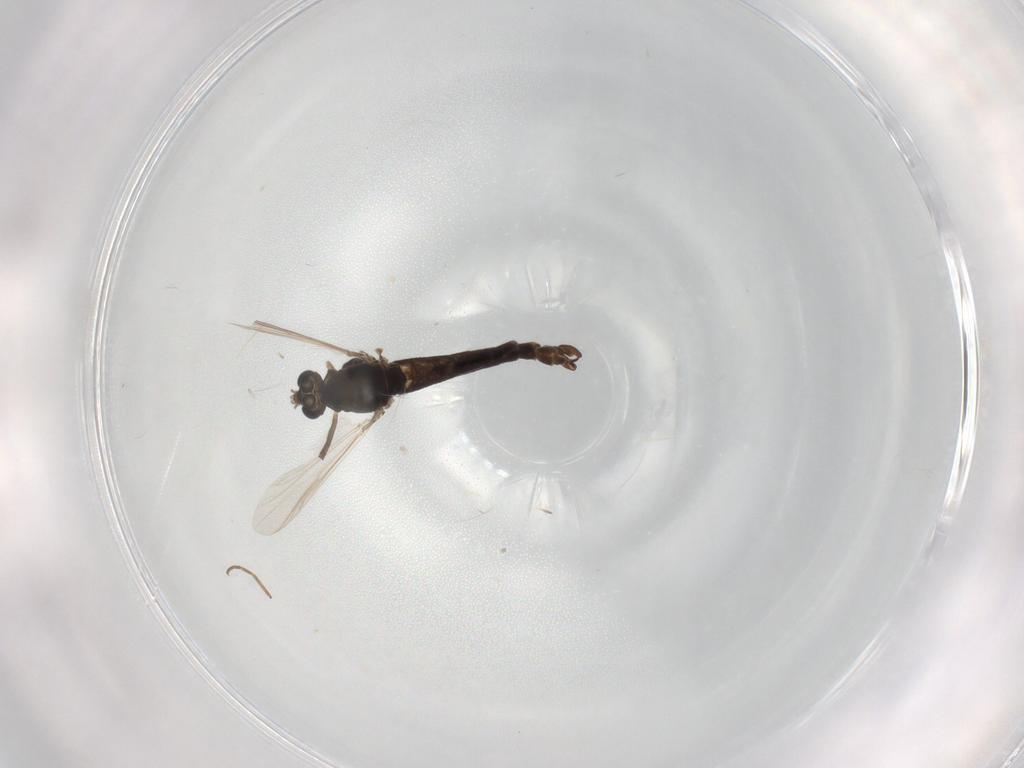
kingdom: Animalia
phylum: Arthropoda
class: Insecta
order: Diptera
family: Chironomidae
